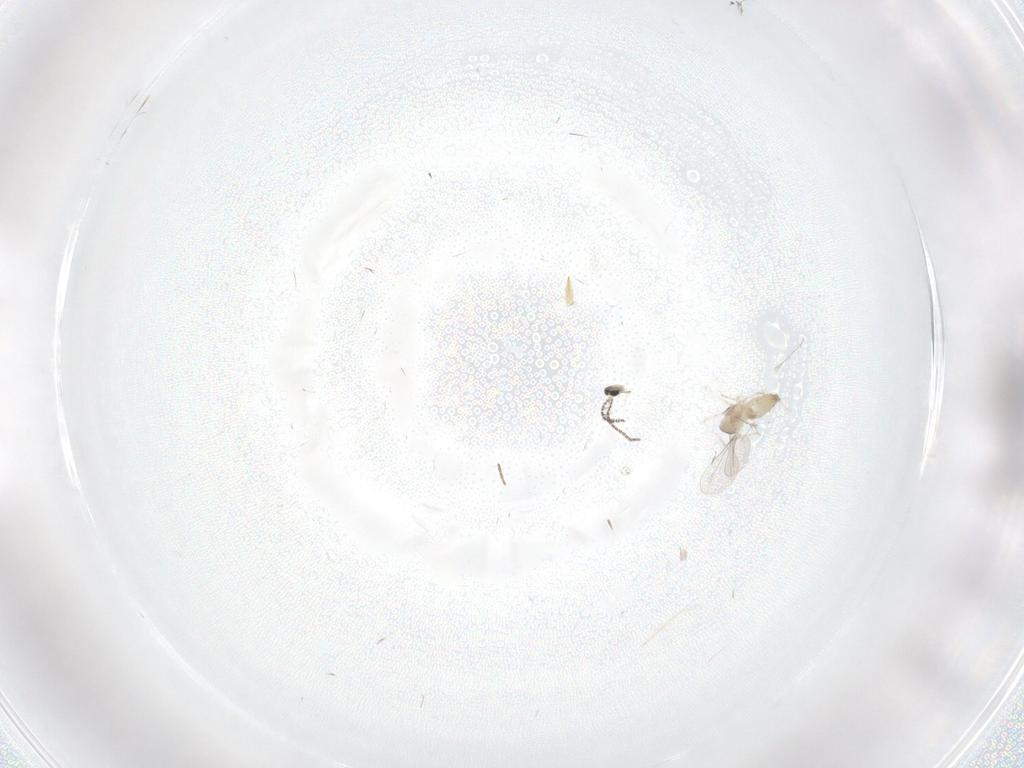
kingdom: Animalia
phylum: Arthropoda
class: Insecta
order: Diptera
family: Cecidomyiidae
